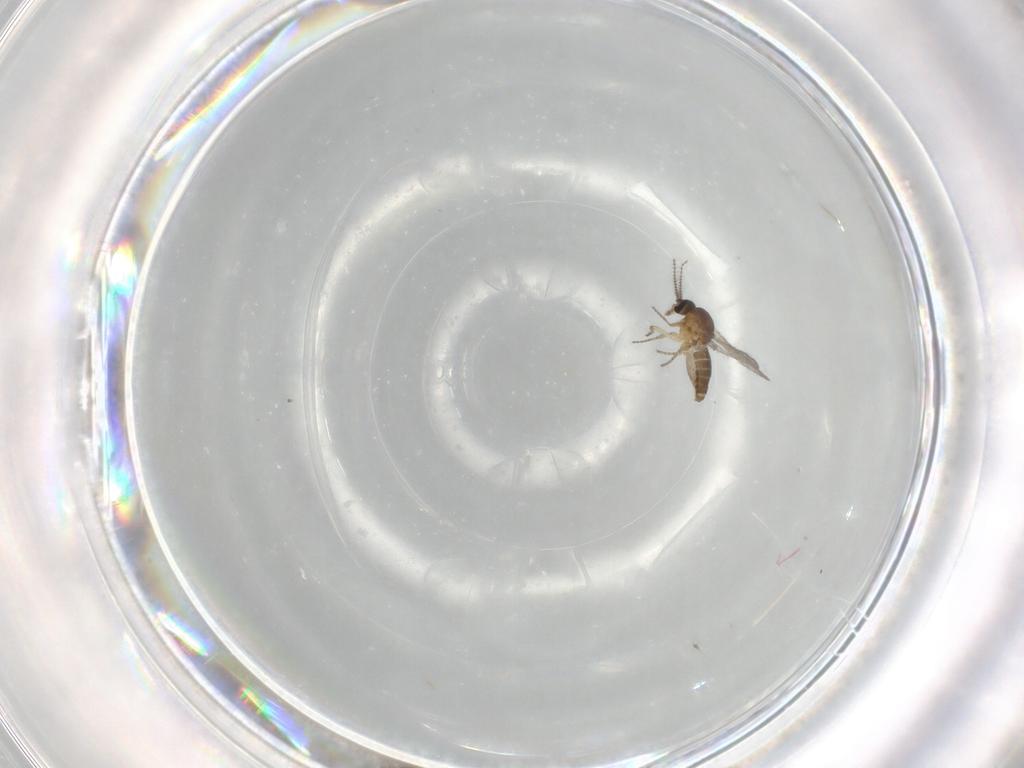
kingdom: Animalia
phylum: Arthropoda
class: Insecta
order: Diptera
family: Ceratopogonidae
